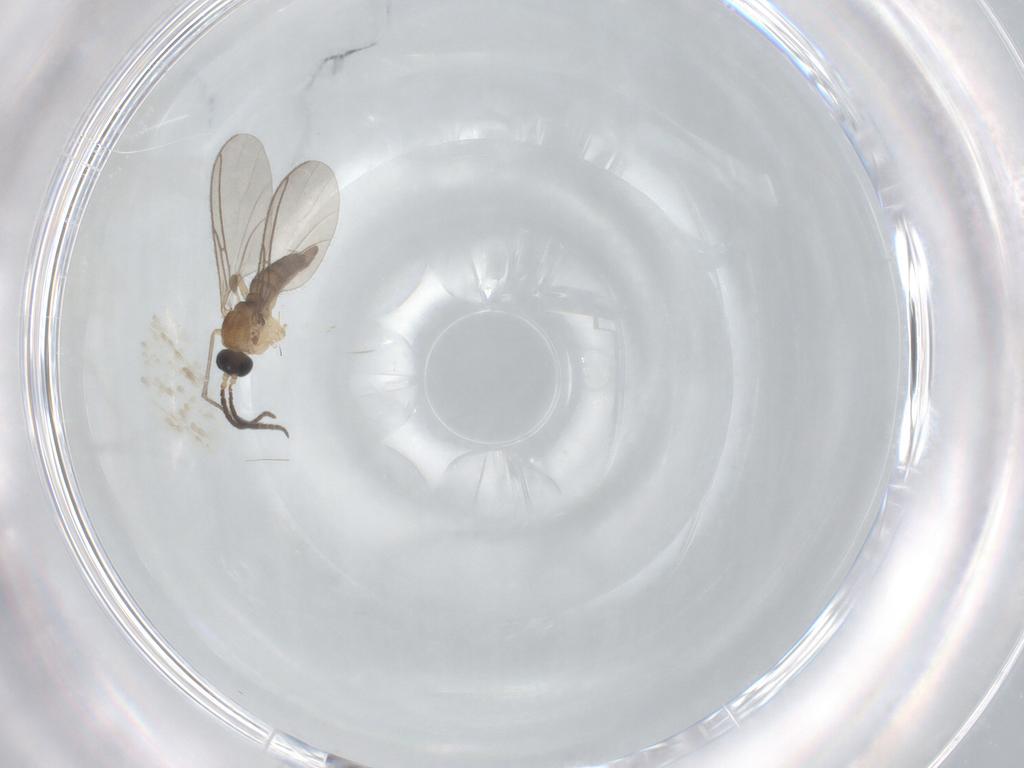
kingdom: Animalia
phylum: Arthropoda
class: Insecta
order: Diptera
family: Sciaridae
